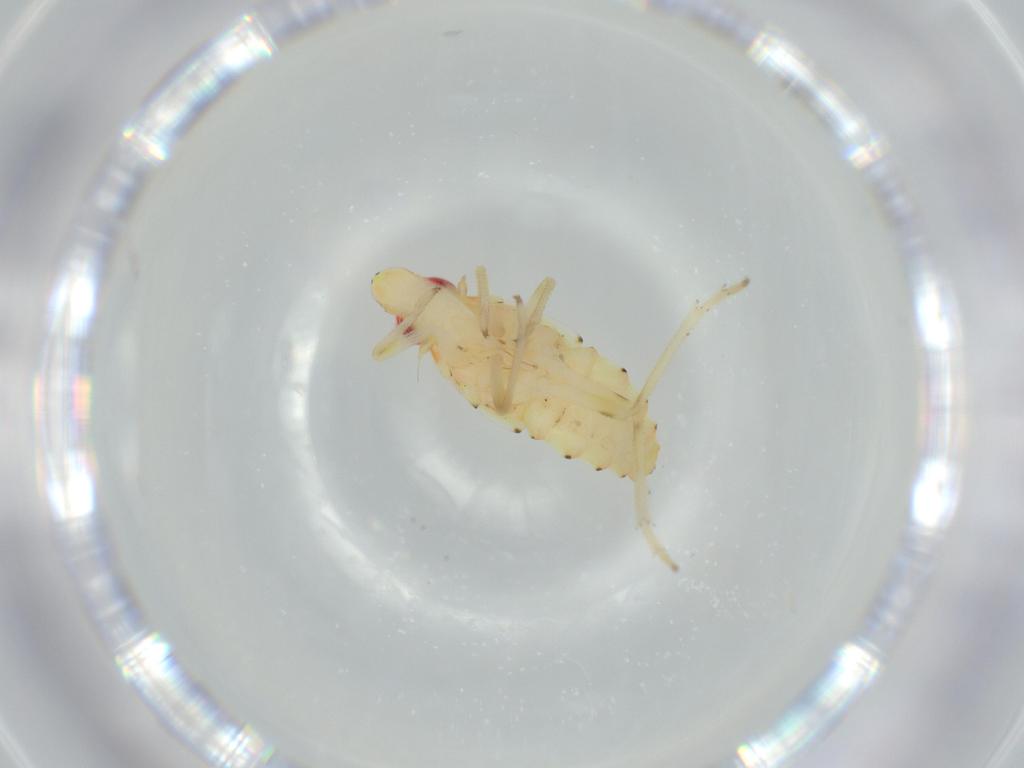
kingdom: Animalia
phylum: Arthropoda
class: Insecta
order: Hemiptera
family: Tropiduchidae
